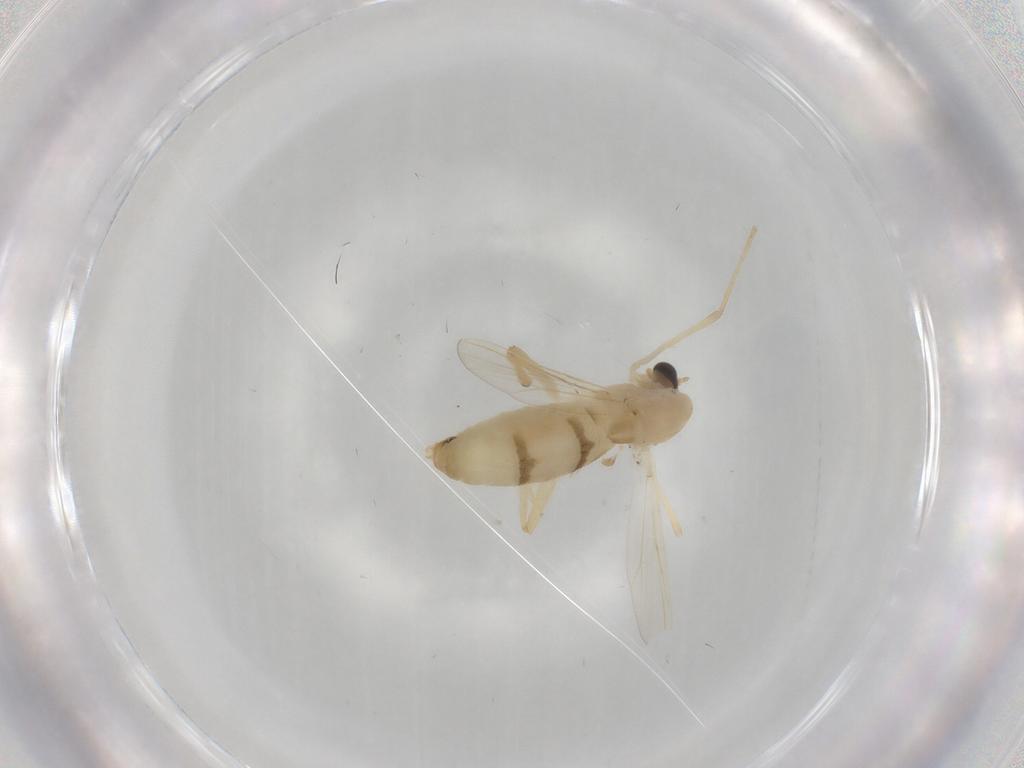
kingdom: Animalia
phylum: Arthropoda
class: Insecta
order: Diptera
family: Chironomidae
